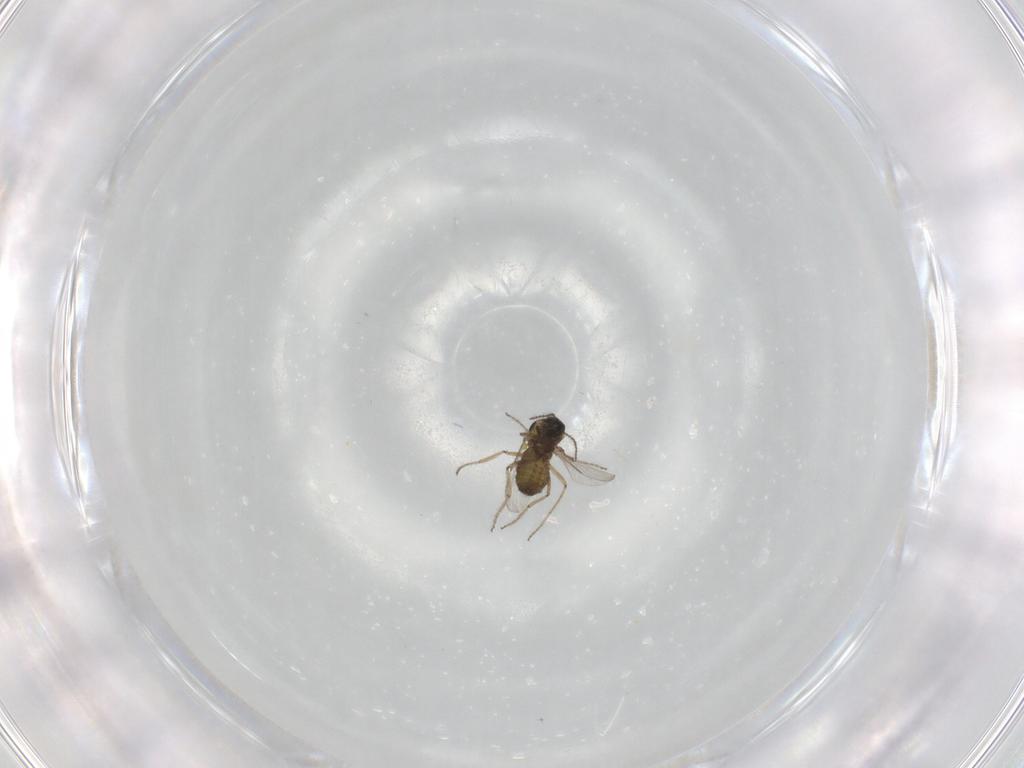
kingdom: Animalia
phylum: Arthropoda
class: Insecta
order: Diptera
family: Ceratopogonidae
